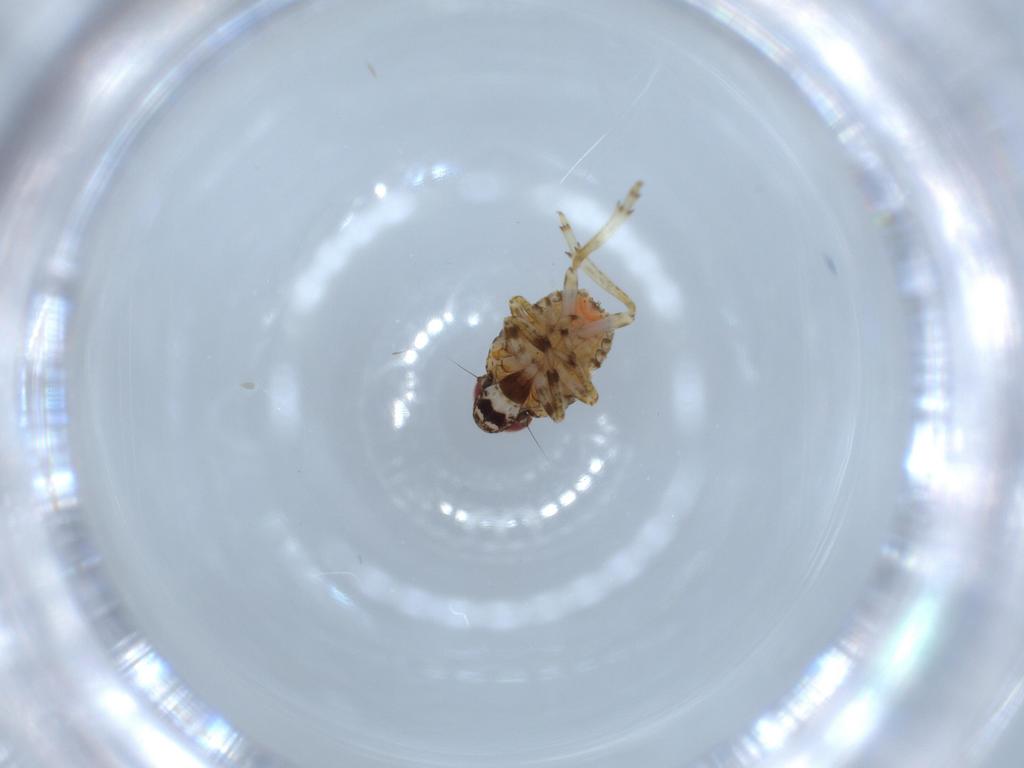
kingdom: Animalia
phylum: Arthropoda
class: Insecta
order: Hemiptera
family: Issidae
